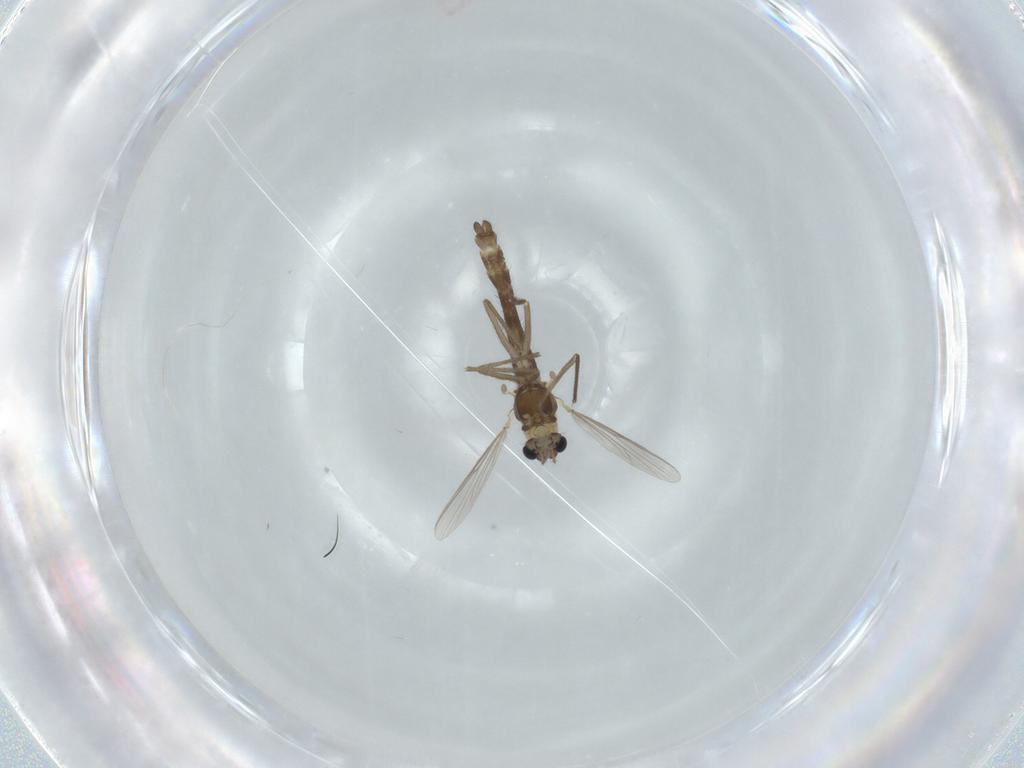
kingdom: Animalia
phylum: Arthropoda
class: Insecta
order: Diptera
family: Chironomidae
